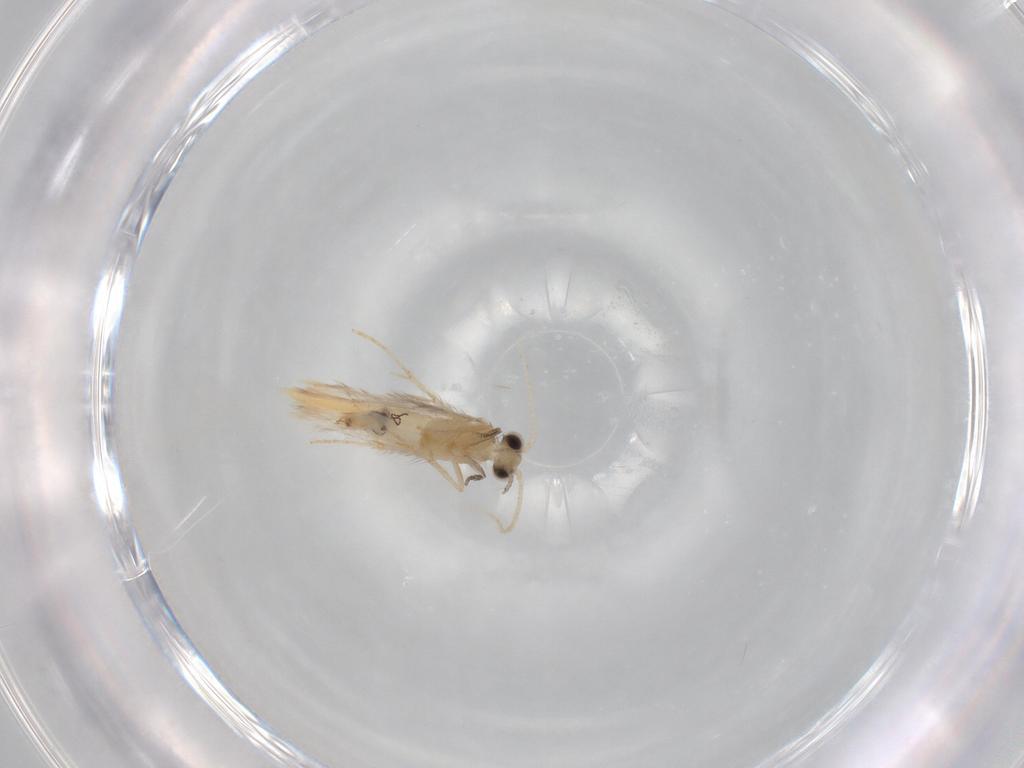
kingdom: Animalia
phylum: Arthropoda
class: Insecta
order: Trichoptera
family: Hydroptilidae
